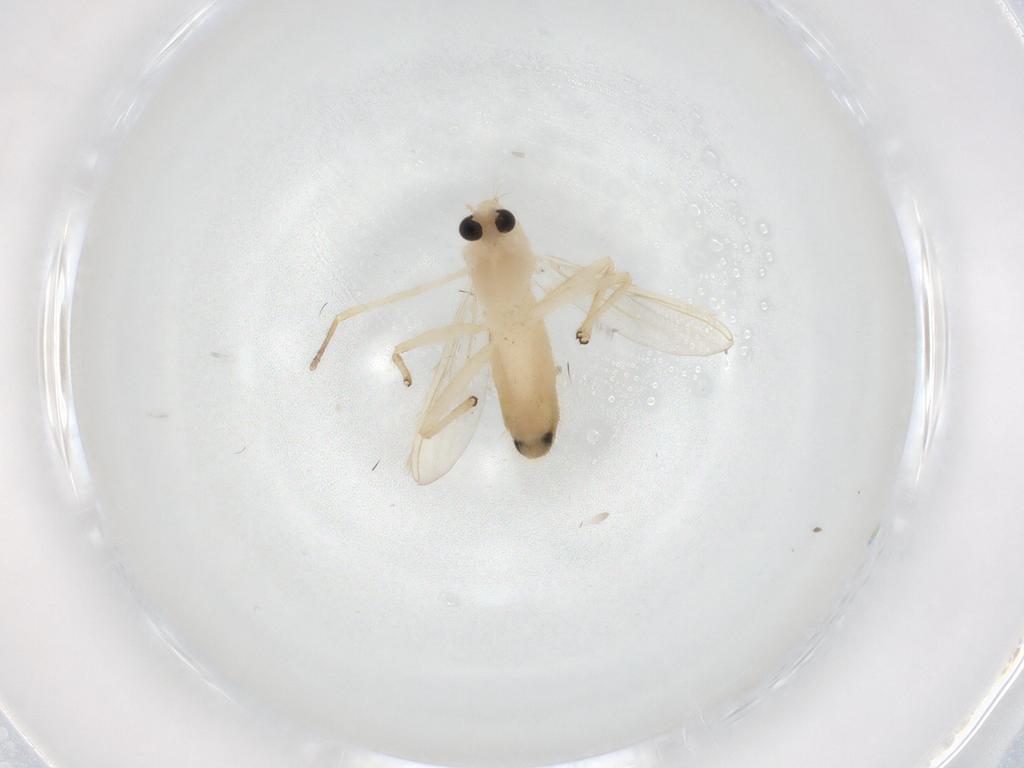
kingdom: Animalia
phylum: Arthropoda
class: Insecta
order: Diptera
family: Chironomidae
